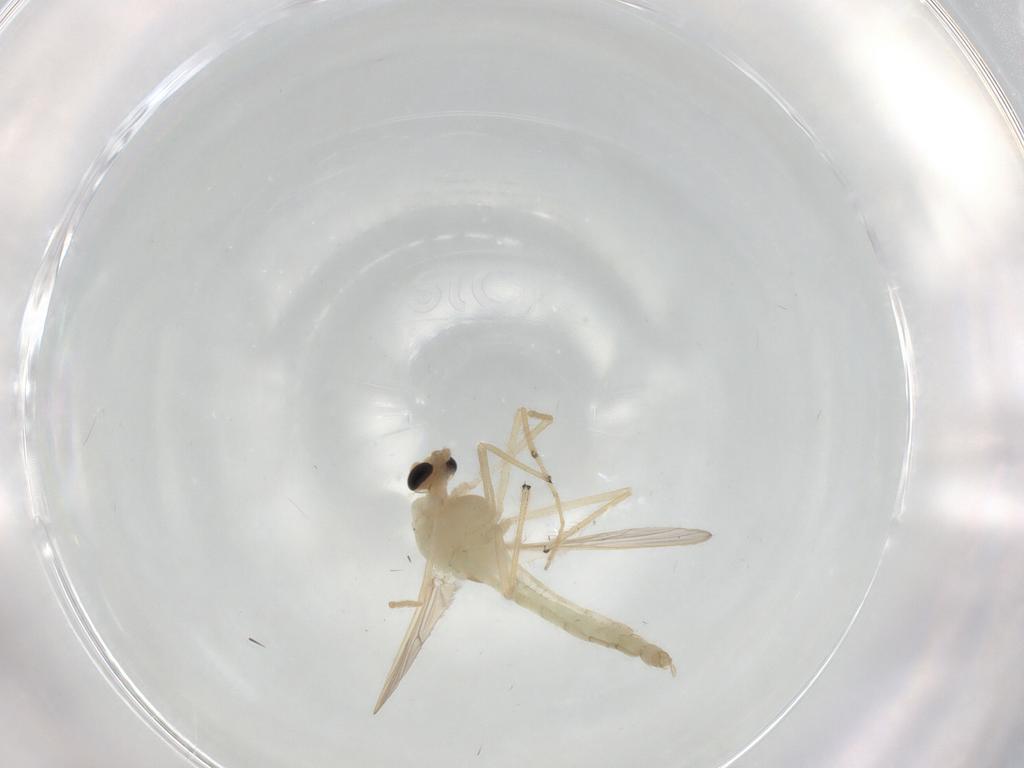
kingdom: Animalia
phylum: Arthropoda
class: Insecta
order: Diptera
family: Chironomidae
